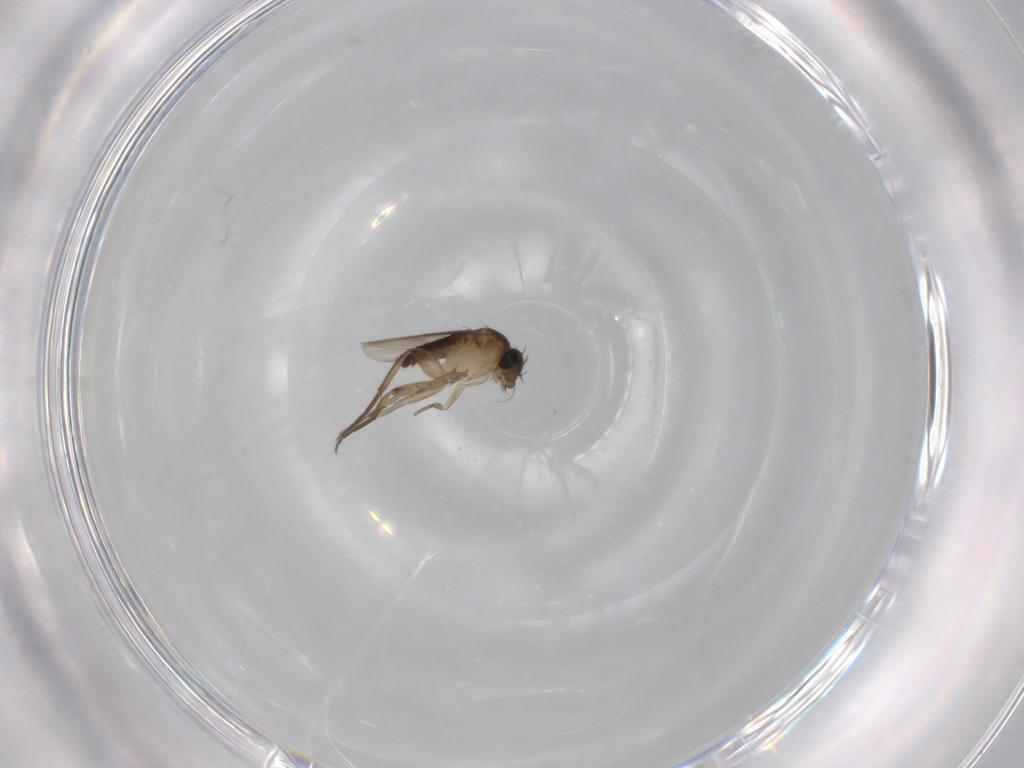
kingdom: Animalia
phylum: Arthropoda
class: Insecta
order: Diptera
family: Phoridae
